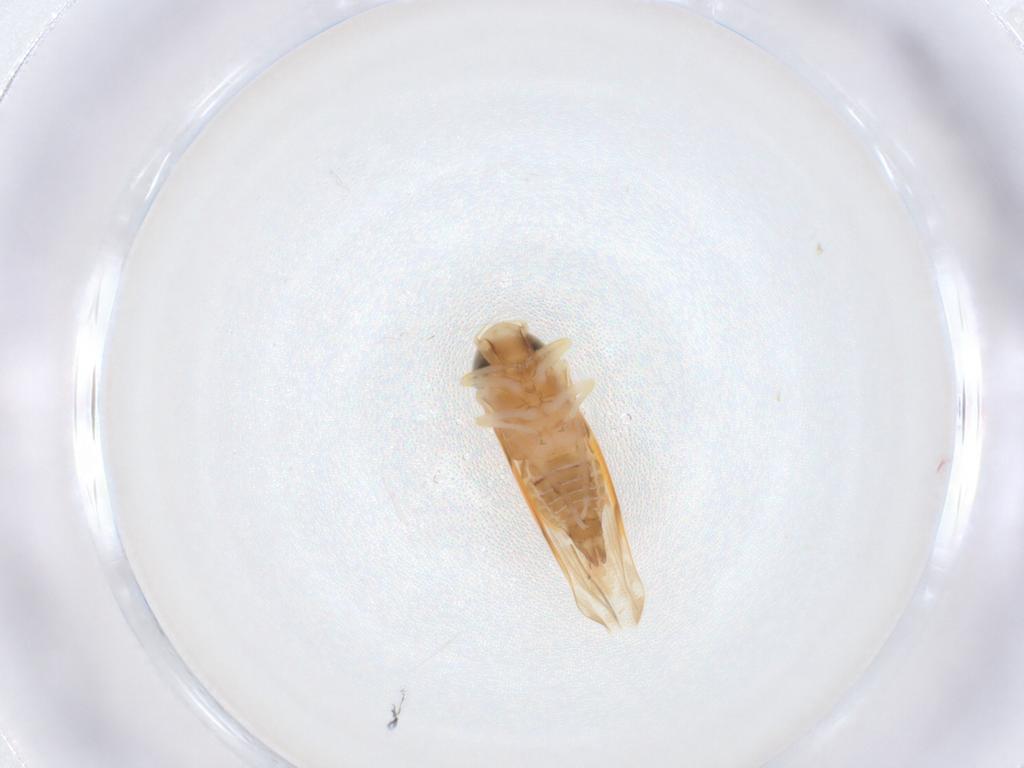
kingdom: Animalia
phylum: Arthropoda
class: Insecta
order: Hemiptera
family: Cicadellidae
